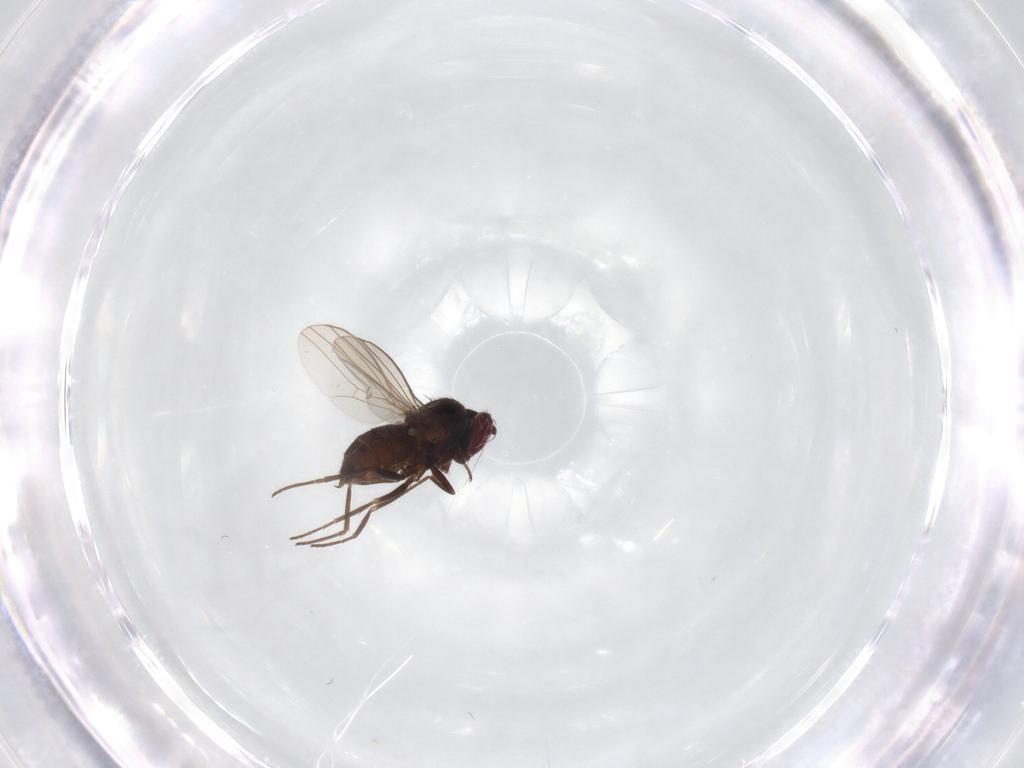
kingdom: Animalia
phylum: Arthropoda
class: Insecta
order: Diptera
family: Dolichopodidae
